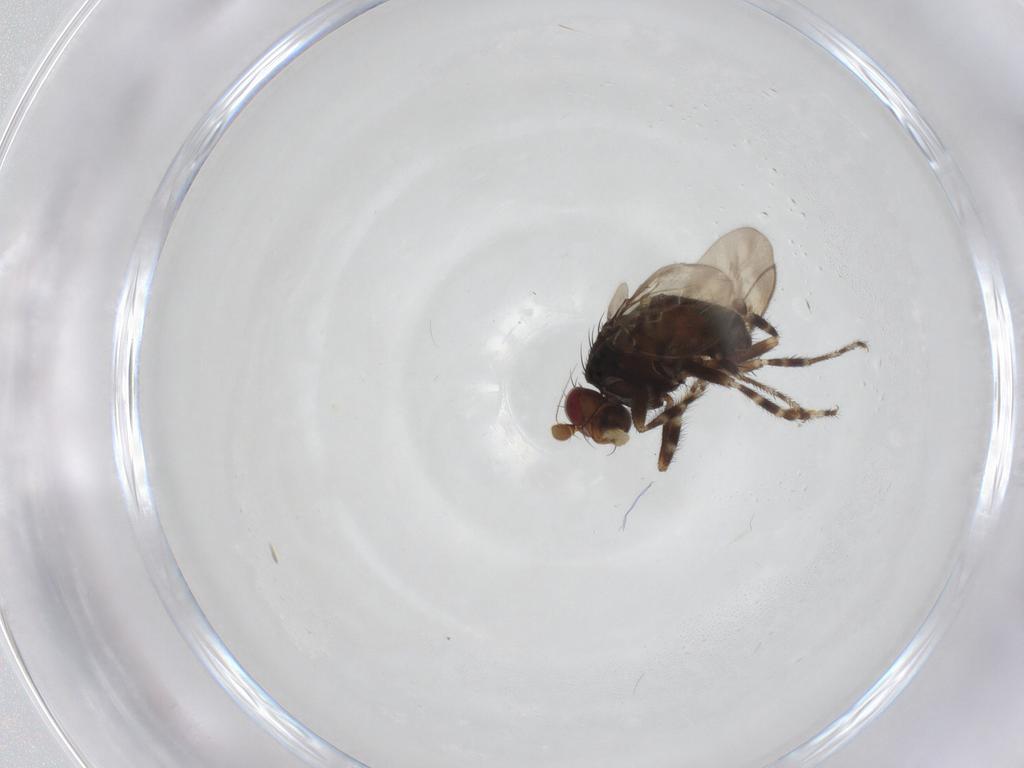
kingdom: Animalia
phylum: Arthropoda
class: Insecta
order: Diptera
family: Sphaeroceridae
